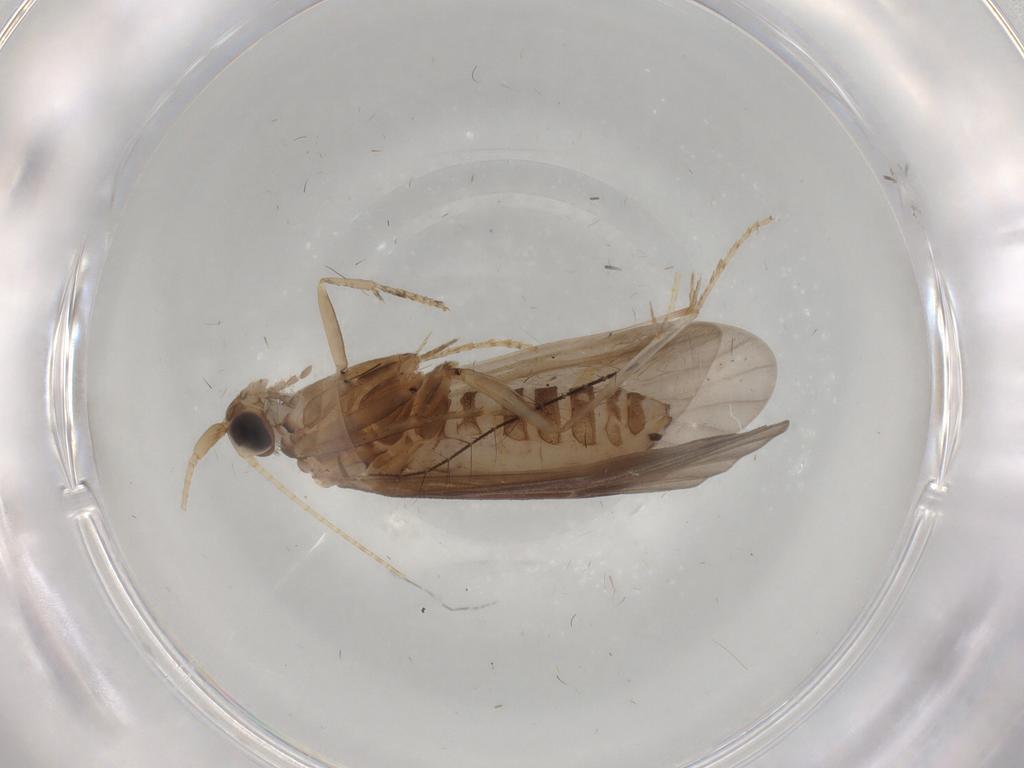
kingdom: Animalia
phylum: Arthropoda
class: Insecta
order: Trichoptera
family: Helicopsychidae
